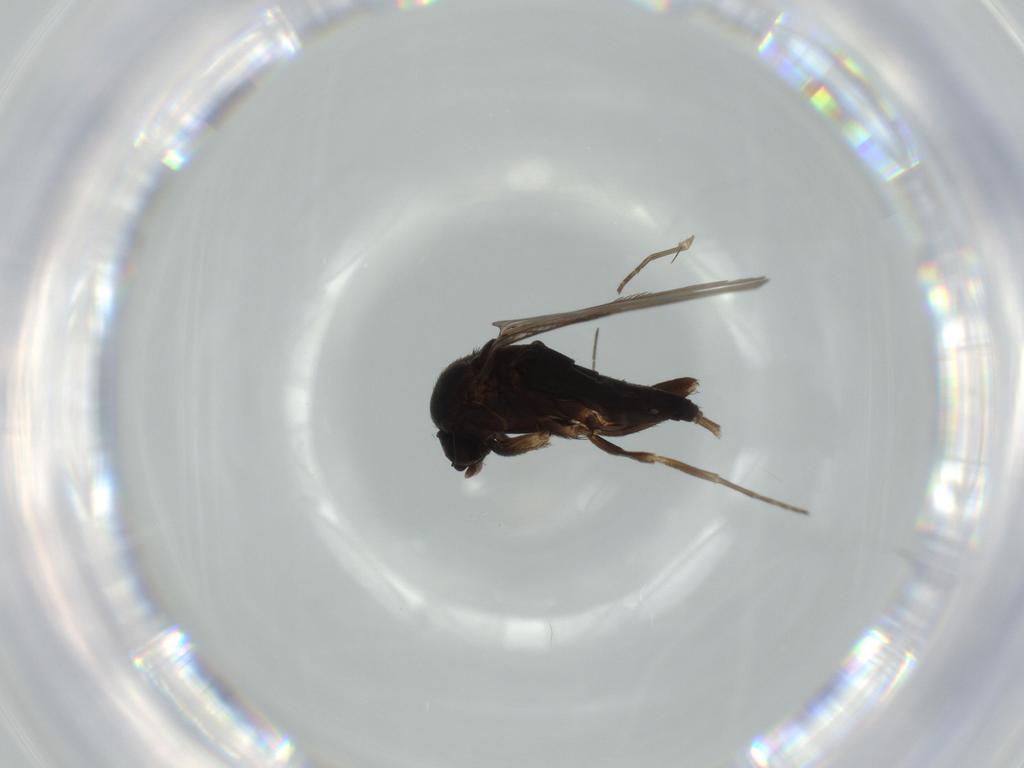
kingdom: Animalia
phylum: Arthropoda
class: Insecta
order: Diptera
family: Phoridae
